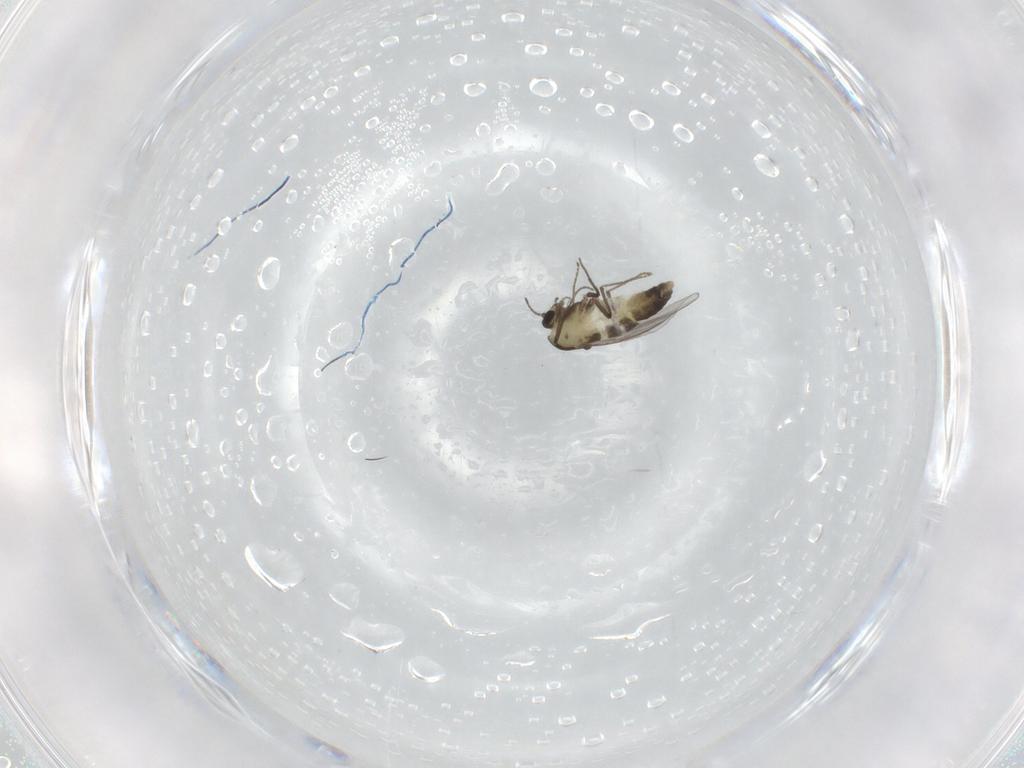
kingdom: Animalia
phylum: Arthropoda
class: Insecta
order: Diptera
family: Chironomidae
